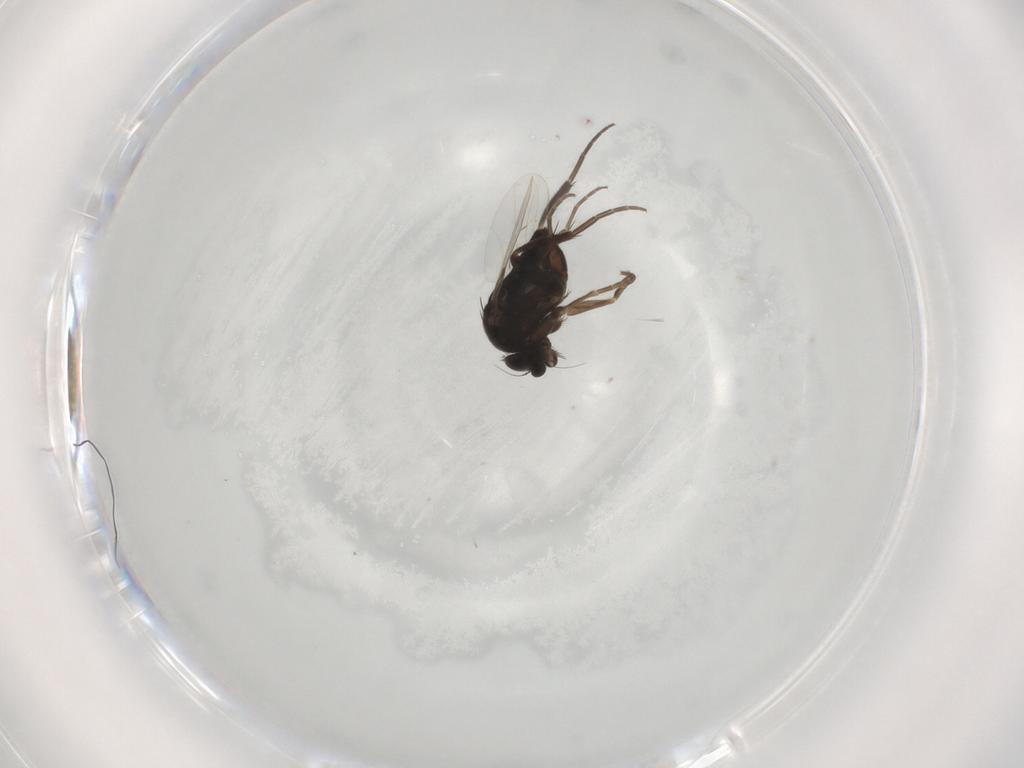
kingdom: Animalia
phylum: Arthropoda
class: Insecta
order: Diptera
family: Phoridae
